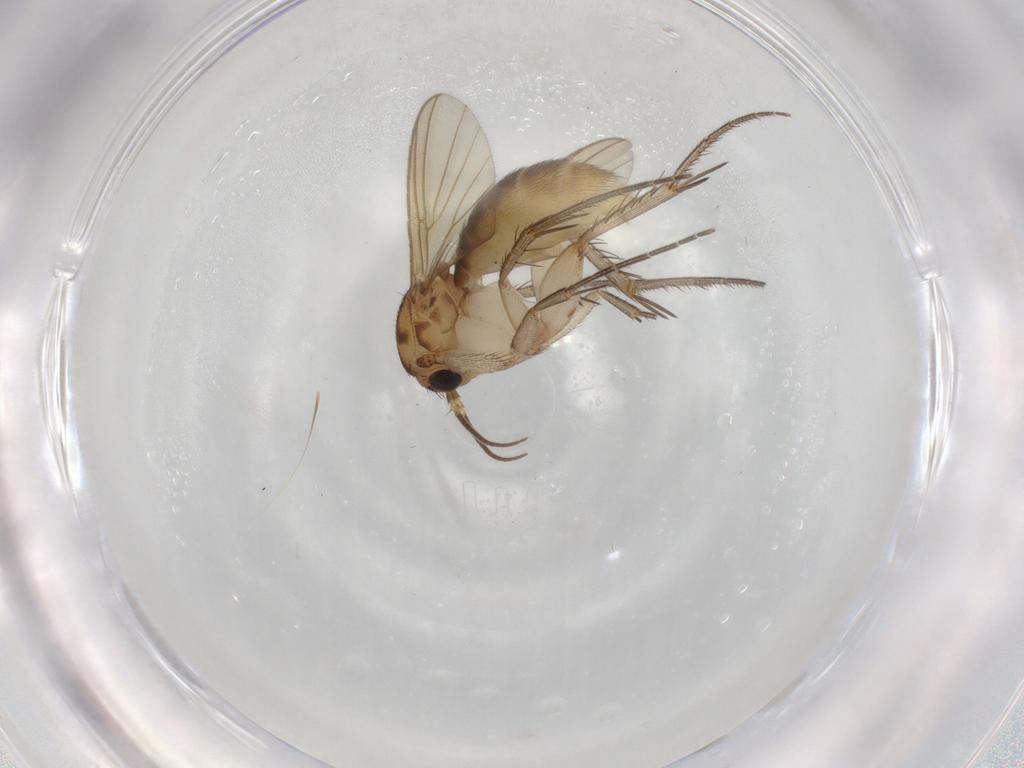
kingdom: Animalia
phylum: Arthropoda
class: Insecta
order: Diptera
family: Mycetophilidae
